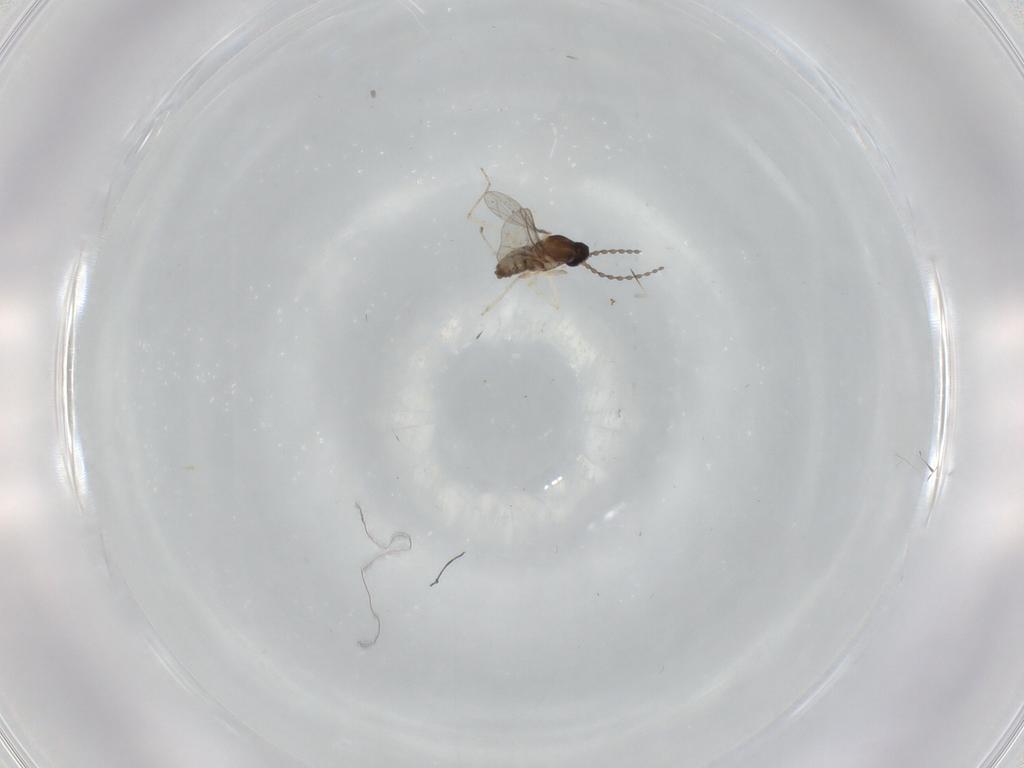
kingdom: Animalia
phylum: Arthropoda
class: Insecta
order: Diptera
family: Cecidomyiidae
